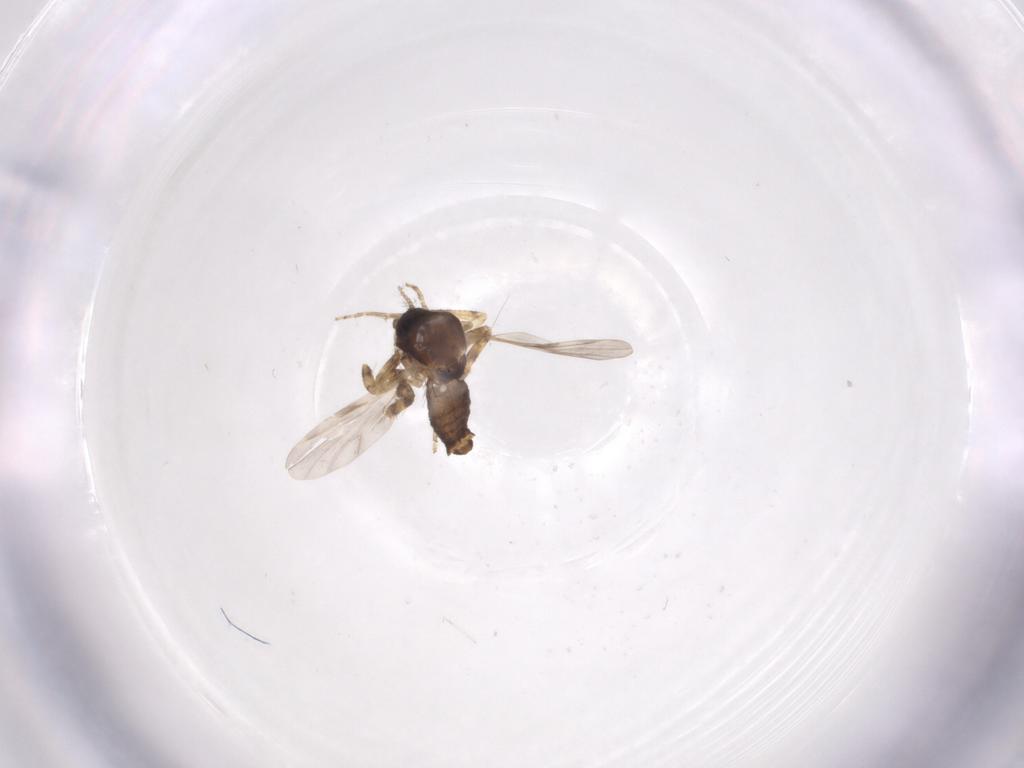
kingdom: Animalia
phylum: Arthropoda
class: Insecta
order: Diptera
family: Ceratopogonidae
